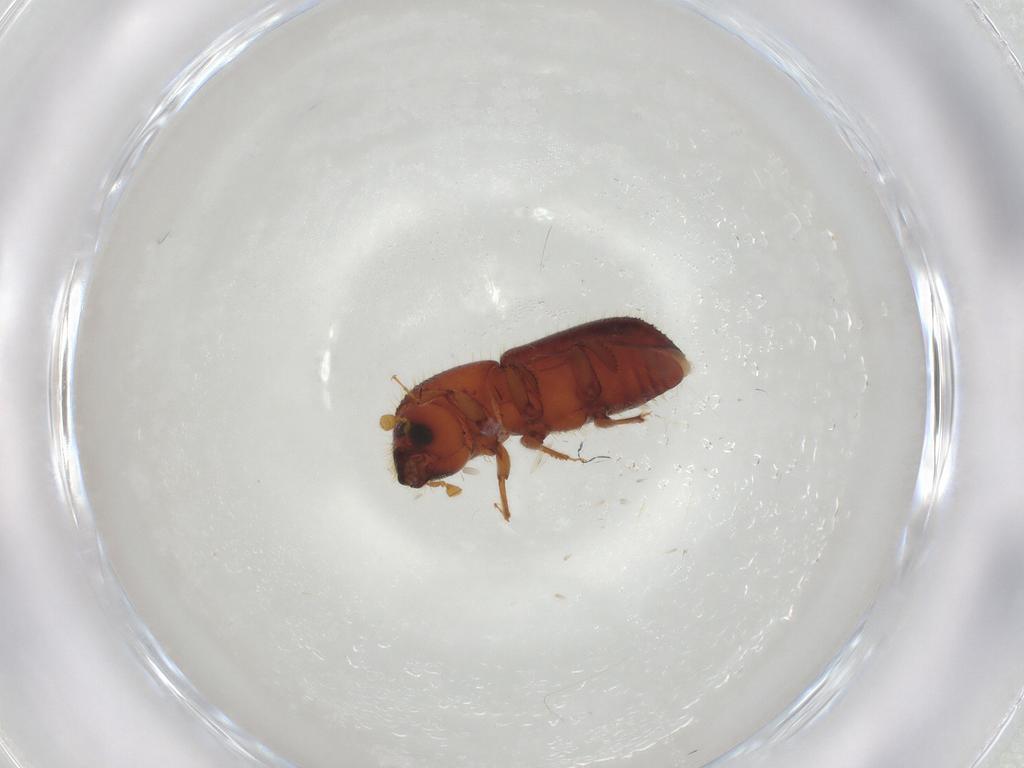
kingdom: Animalia
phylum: Arthropoda
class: Insecta
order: Coleoptera
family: Curculionidae
